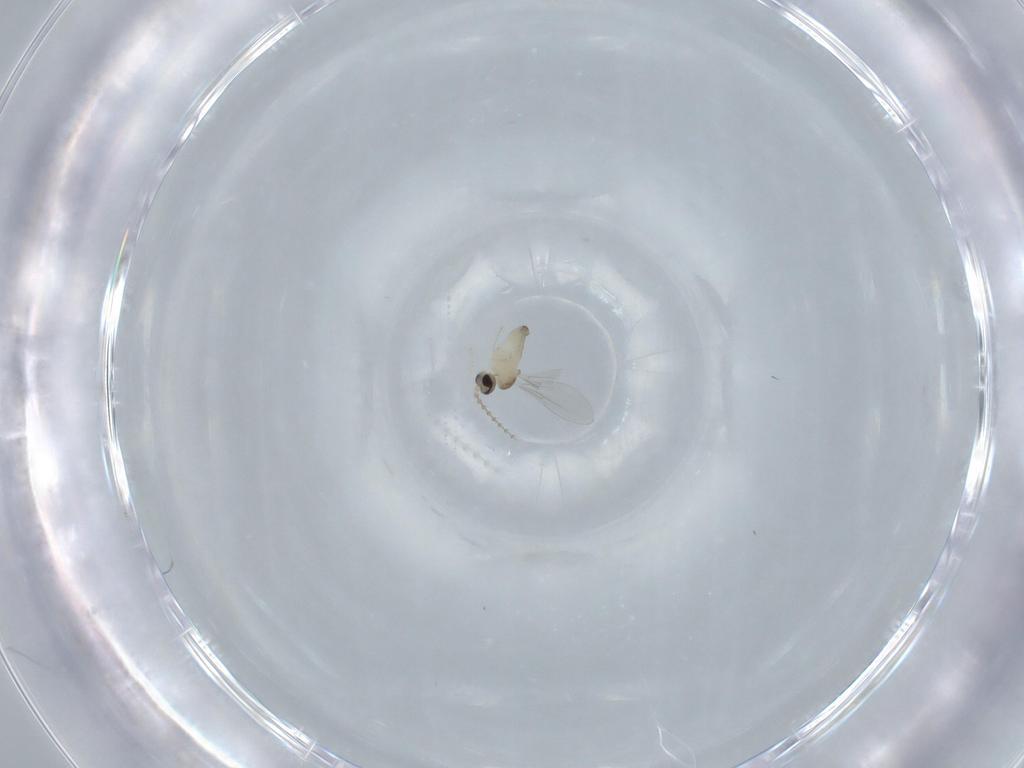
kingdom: Animalia
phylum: Arthropoda
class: Insecta
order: Diptera
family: Cecidomyiidae
